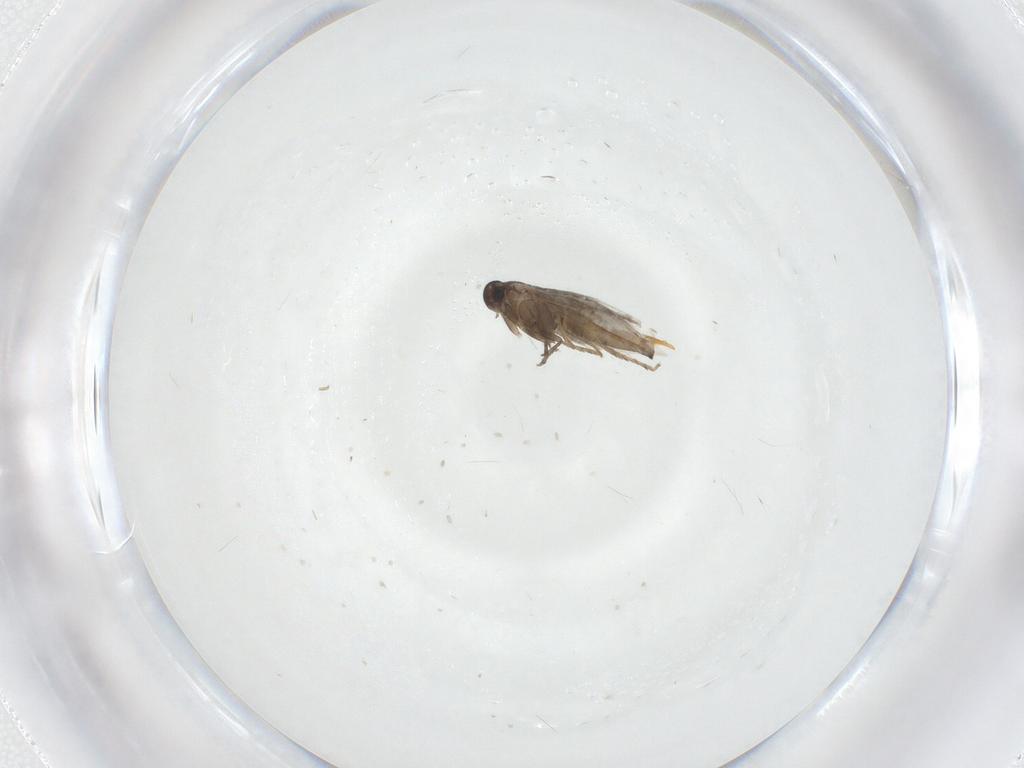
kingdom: Animalia
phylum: Arthropoda
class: Insecta
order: Lepidoptera
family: Heliozelidae
